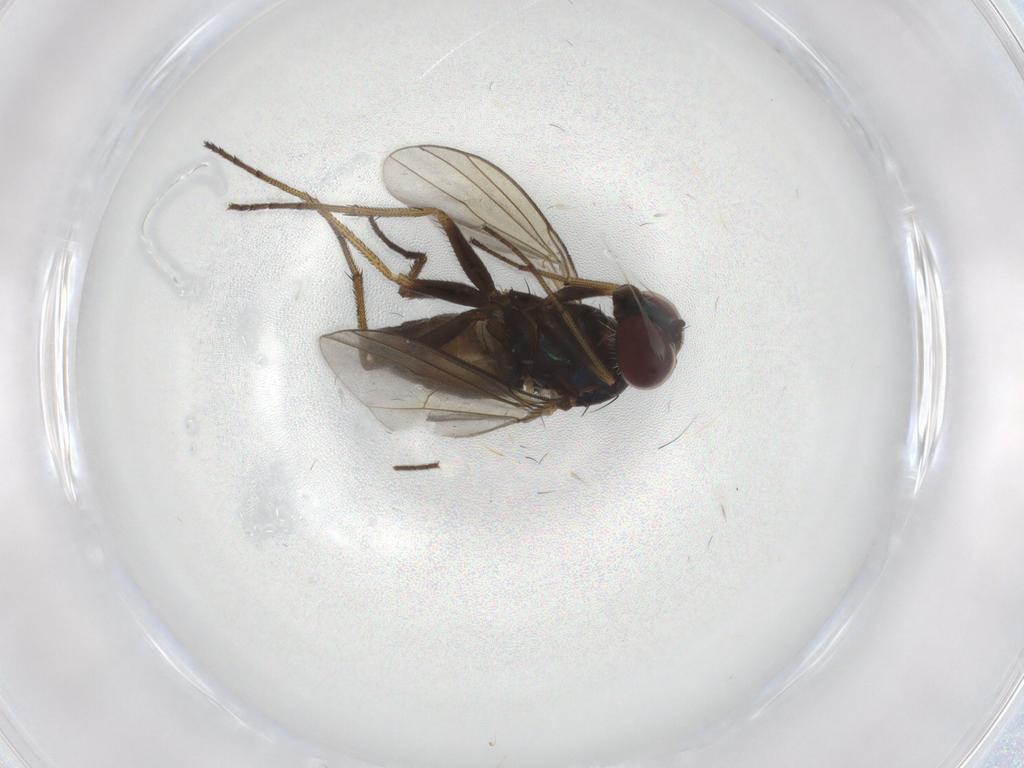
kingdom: Animalia
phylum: Arthropoda
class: Insecta
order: Diptera
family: Dolichopodidae
